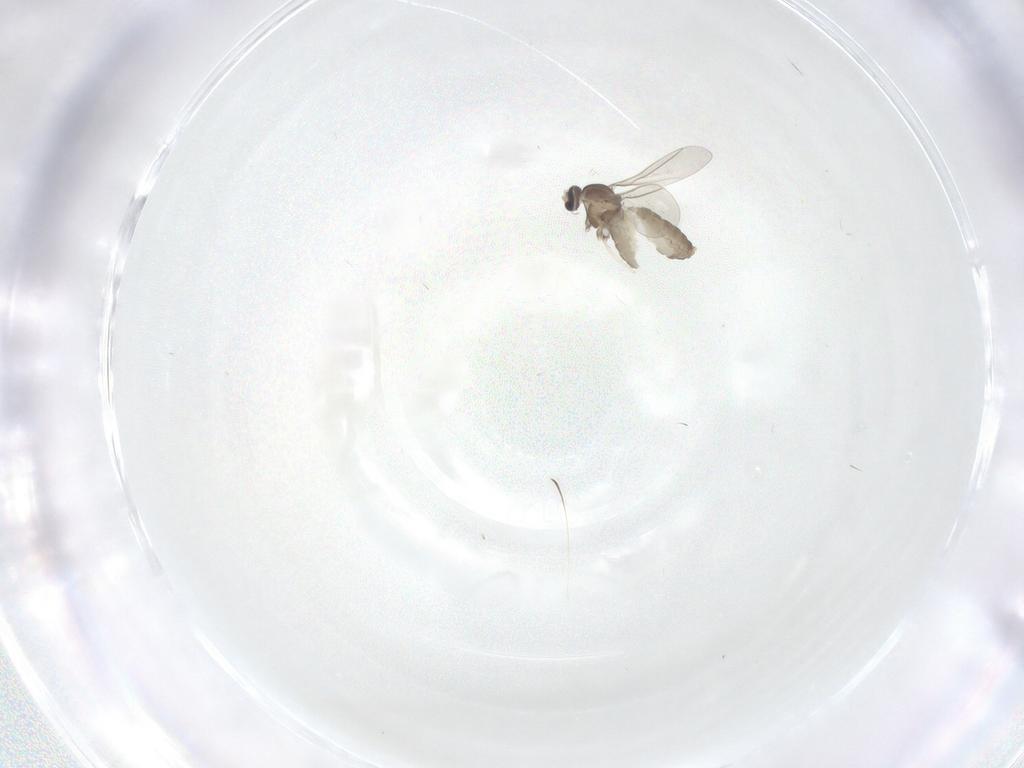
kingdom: Animalia
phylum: Arthropoda
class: Insecta
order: Diptera
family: Cecidomyiidae
